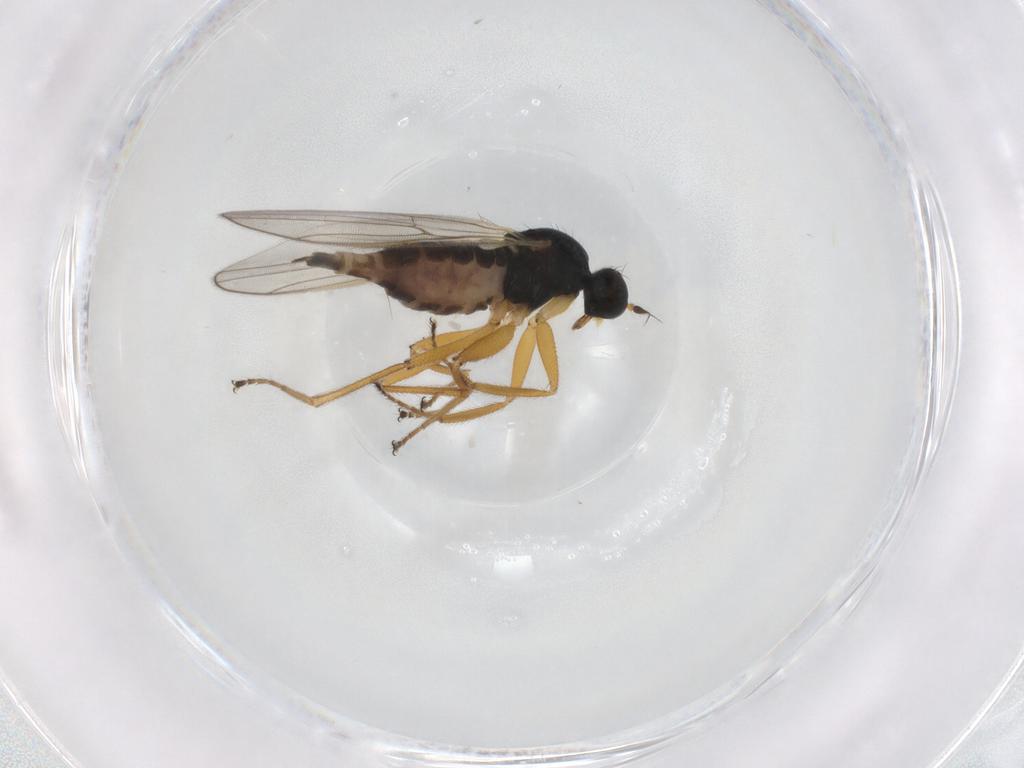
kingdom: Animalia
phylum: Arthropoda
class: Insecta
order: Diptera
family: Hybotidae
